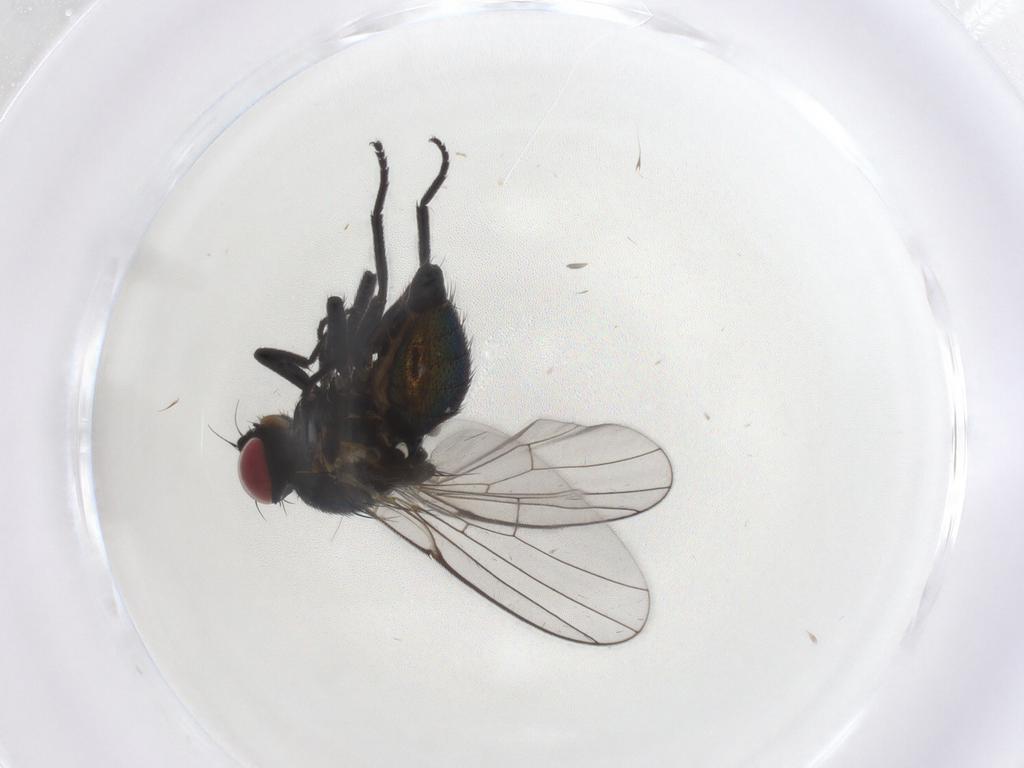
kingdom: Animalia
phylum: Arthropoda
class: Insecta
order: Diptera
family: Agromyzidae
